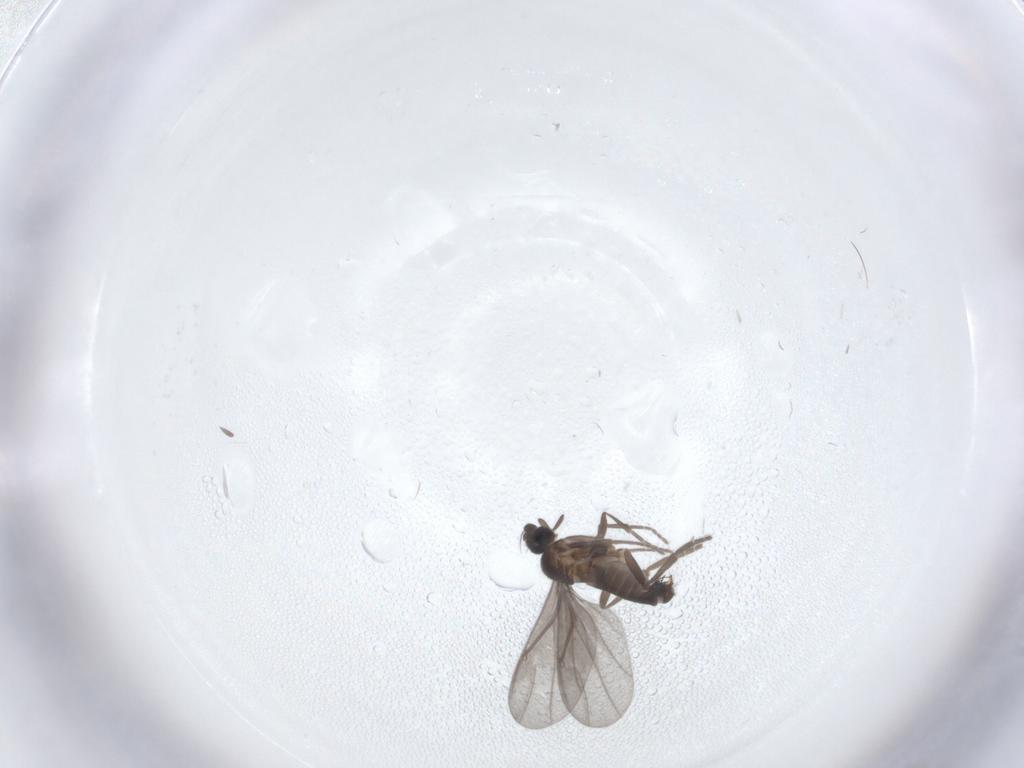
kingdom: Animalia
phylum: Arthropoda
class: Insecta
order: Diptera
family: Phoridae
